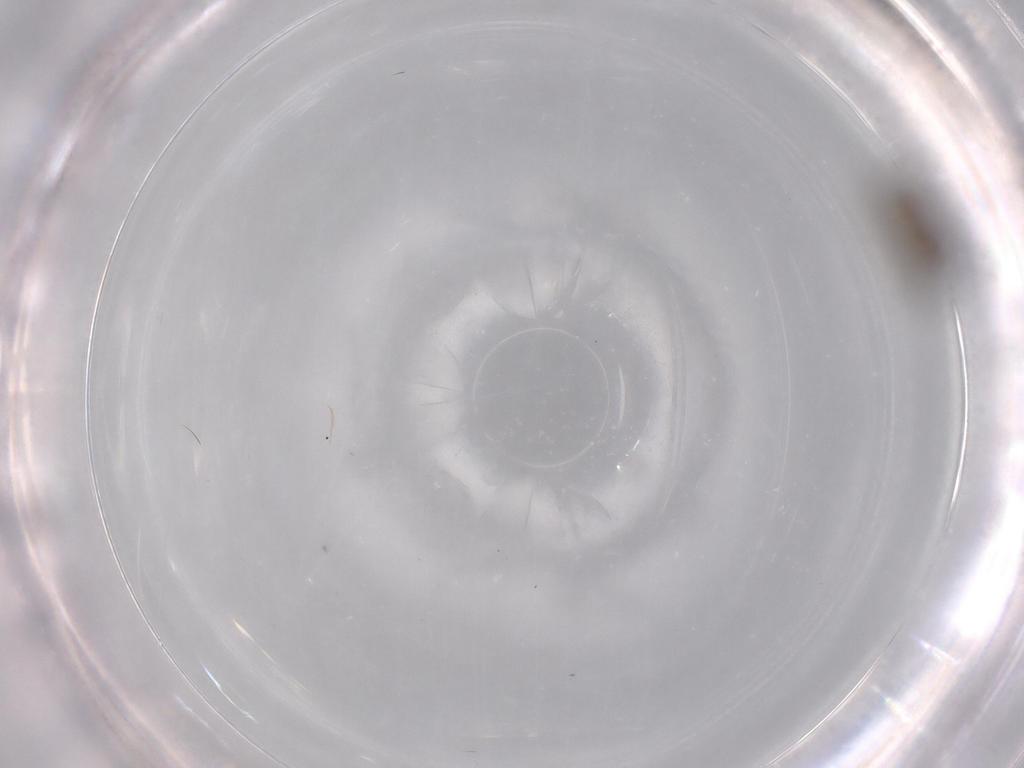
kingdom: Animalia
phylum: Arthropoda
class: Insecta
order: Diptera
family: Psychodidae
